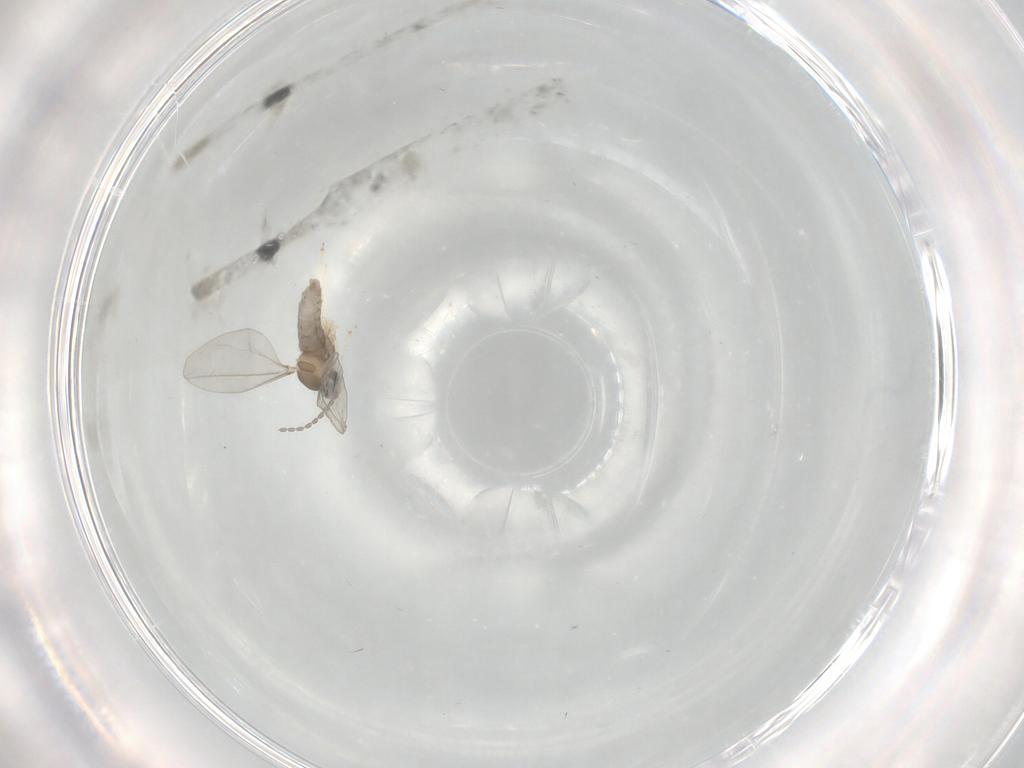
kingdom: Animalia
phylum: Arthropoda
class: Insecta
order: Diptera
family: Cecidomyiidae
